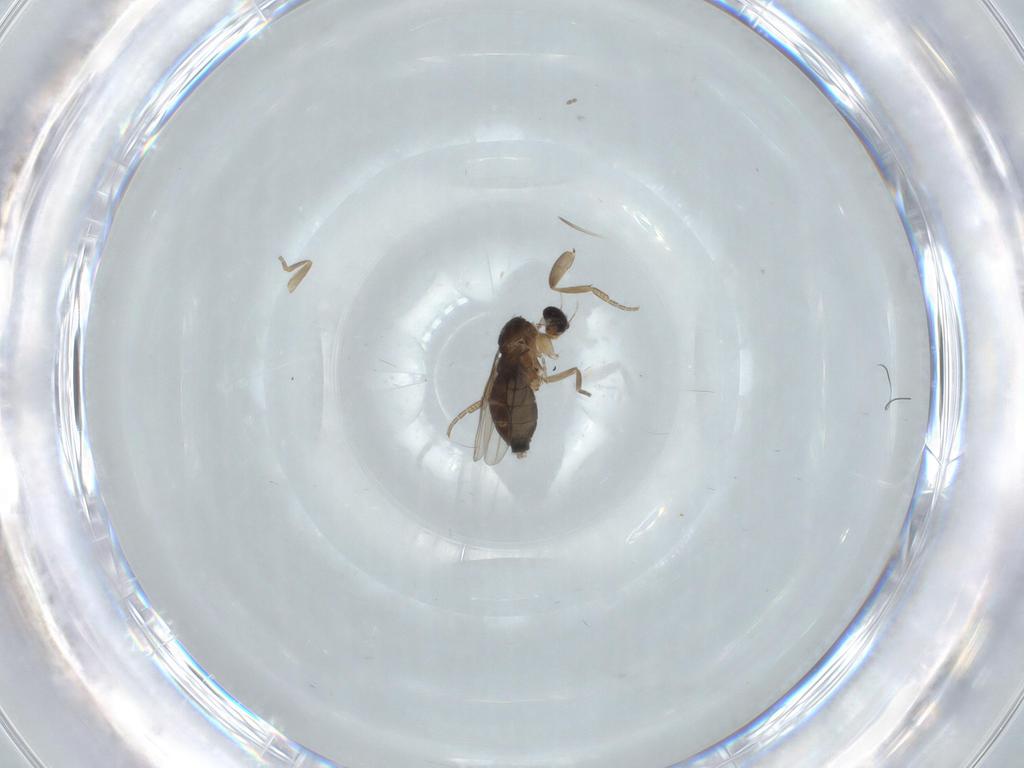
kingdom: Animalia
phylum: Arthropoda
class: Insecta
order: Diptera
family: Phoridae
